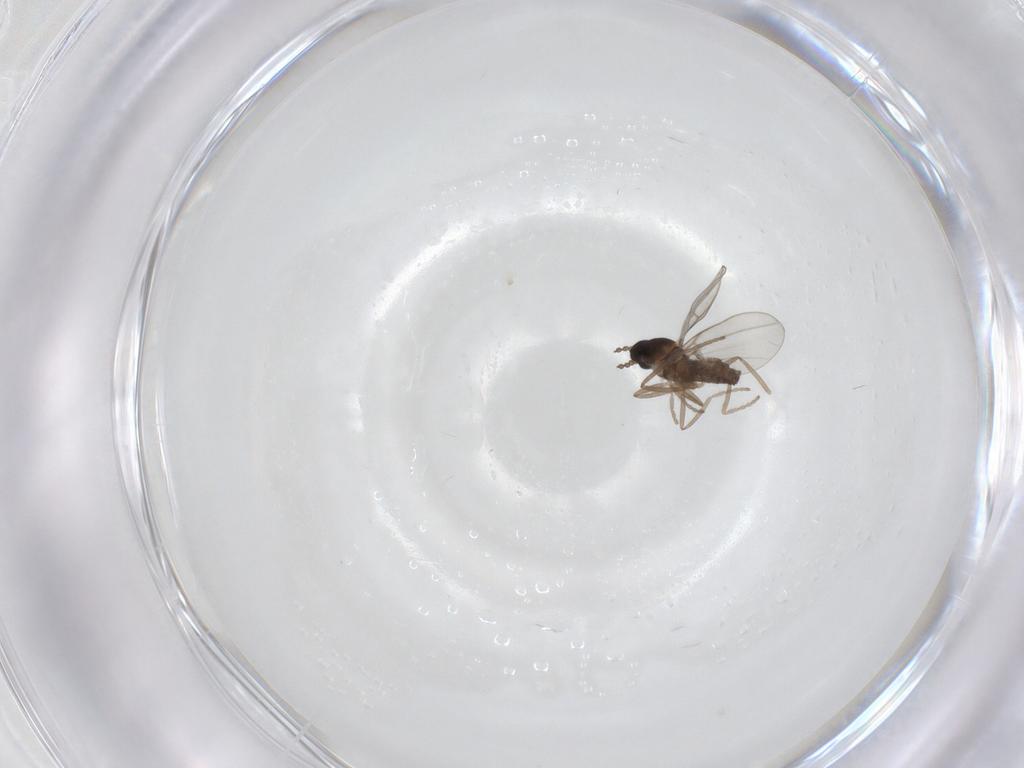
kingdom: Animalia
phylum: Arthropoda
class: Insecta
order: Diptera
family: Cecidomyiidae
